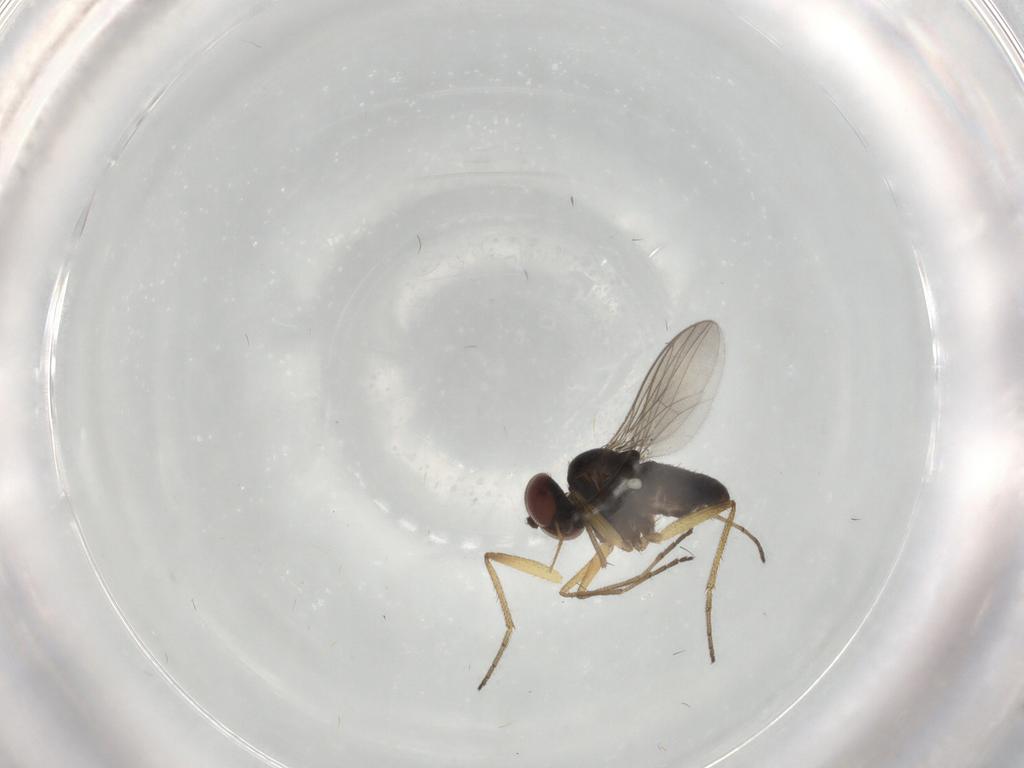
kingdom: Animalia
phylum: Arthropoda
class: Insecta
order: Diptera
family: Dolichopodidae
